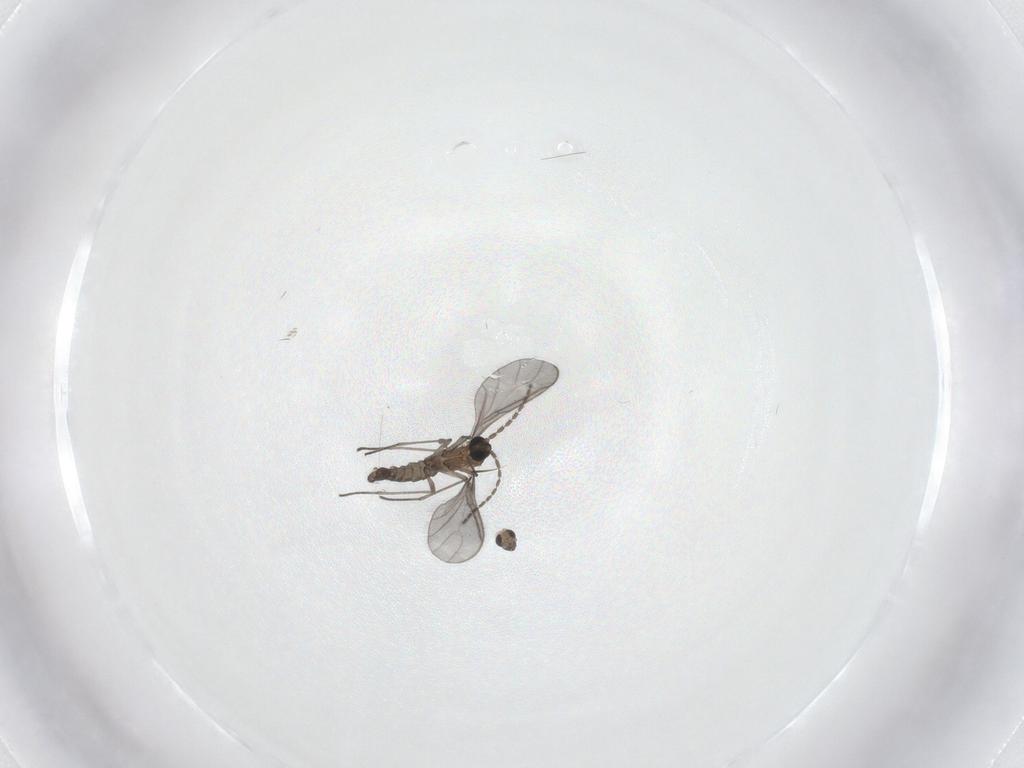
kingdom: Animalia
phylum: Arthropoda
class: Insecta
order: Diptera
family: Sciaridae
